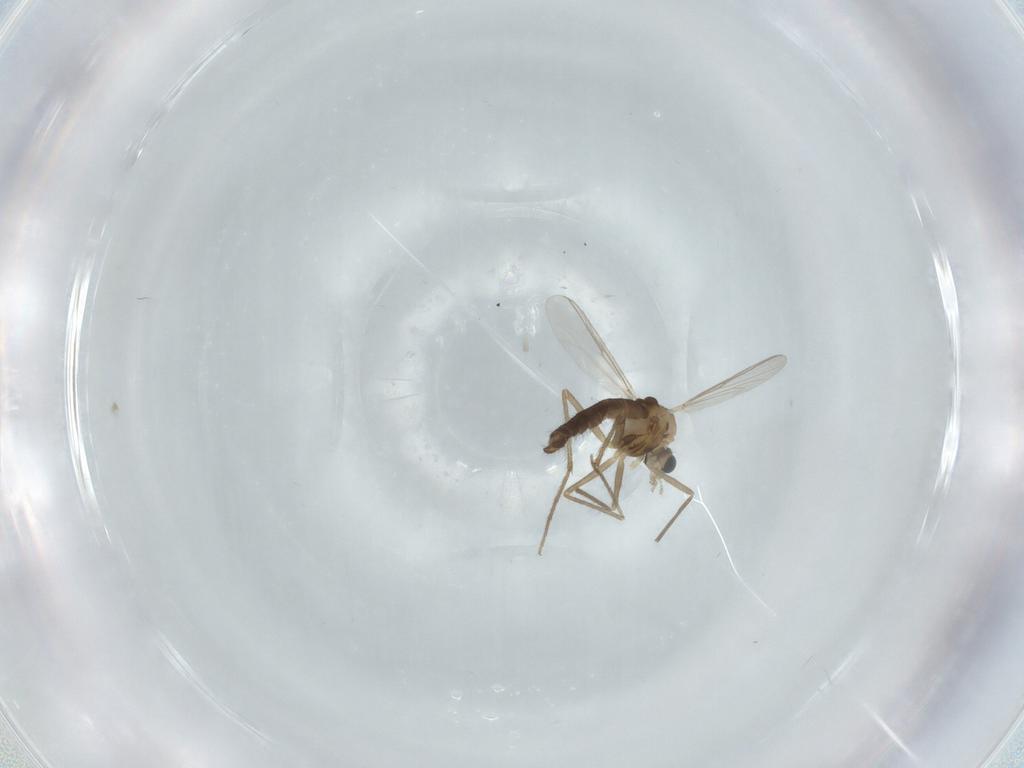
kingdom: Animalia
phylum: Arthropoda
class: Insecta
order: Diptera
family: Chironomidae
